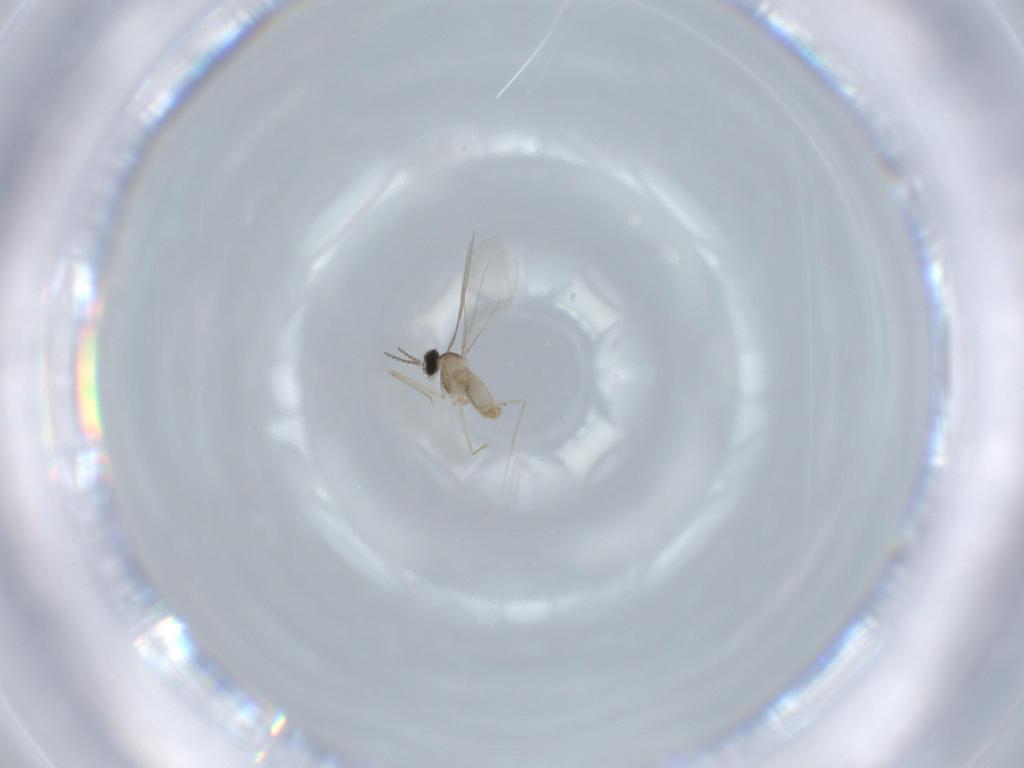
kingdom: Animalia
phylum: Arthropoda
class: Insecta
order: Diptera
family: Cecidomyiidae
